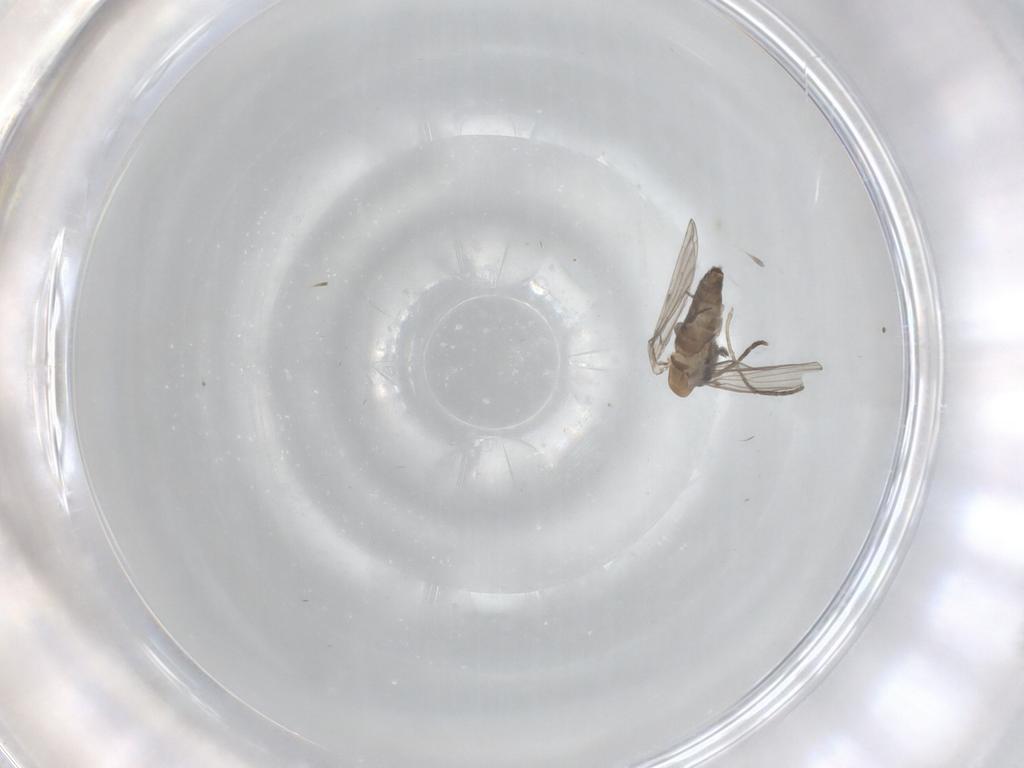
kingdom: Animalia
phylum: Arthropoda
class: Insecta
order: Diptera
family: Psychodidae
